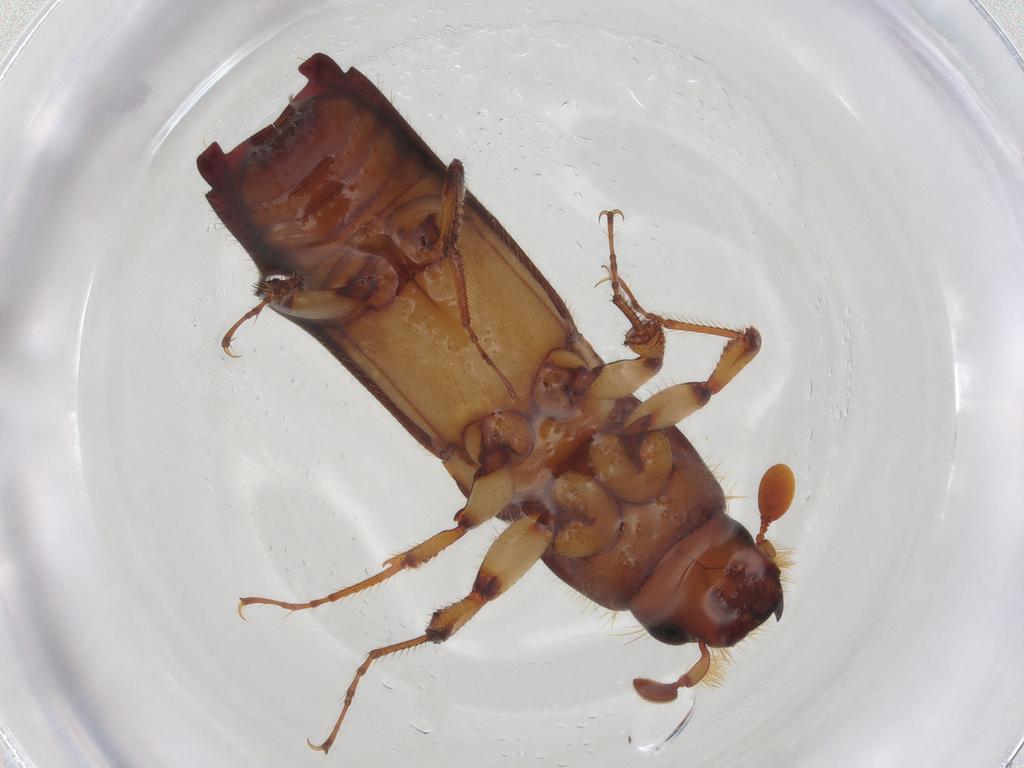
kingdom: Animalia
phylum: Arthropoda
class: Insecta
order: Coleoptera
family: Curculionidae
